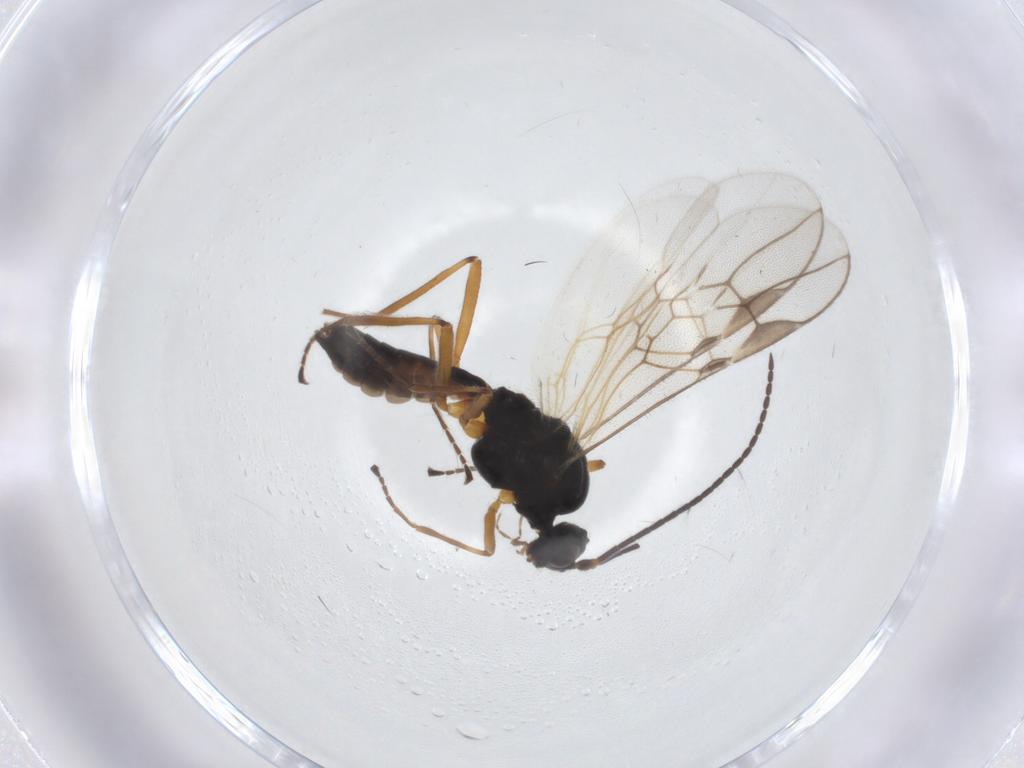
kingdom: Animalia
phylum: Arthropoda
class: Insecta
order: Hymenoptera
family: Braconidae
